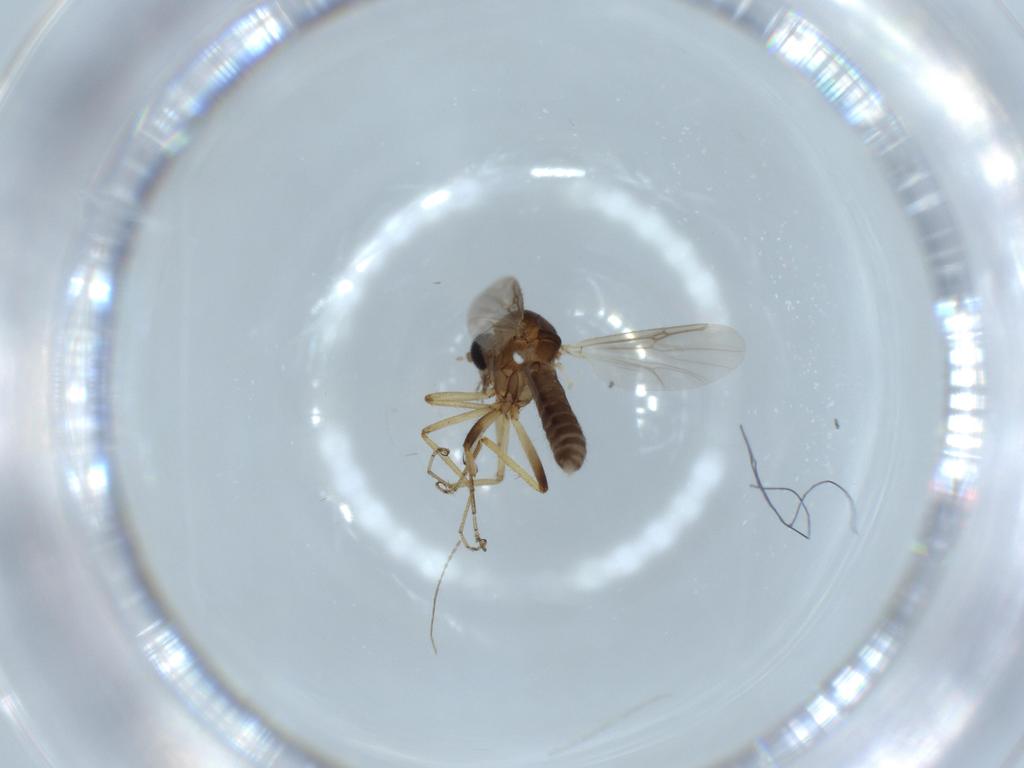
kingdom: Animalia
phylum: Arthropoda
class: Insecta
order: Diptera
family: Ceratopogonidae
